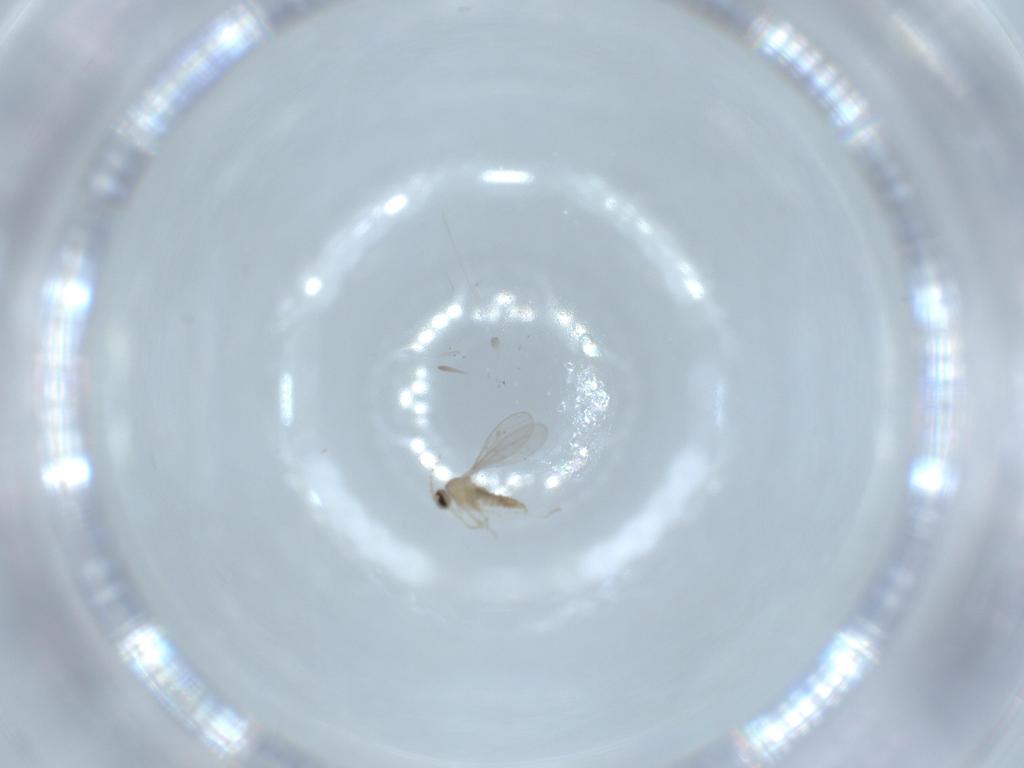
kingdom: Animalia
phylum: Arthropoda
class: Insecta
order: Diptera
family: Cecidomyiidae
